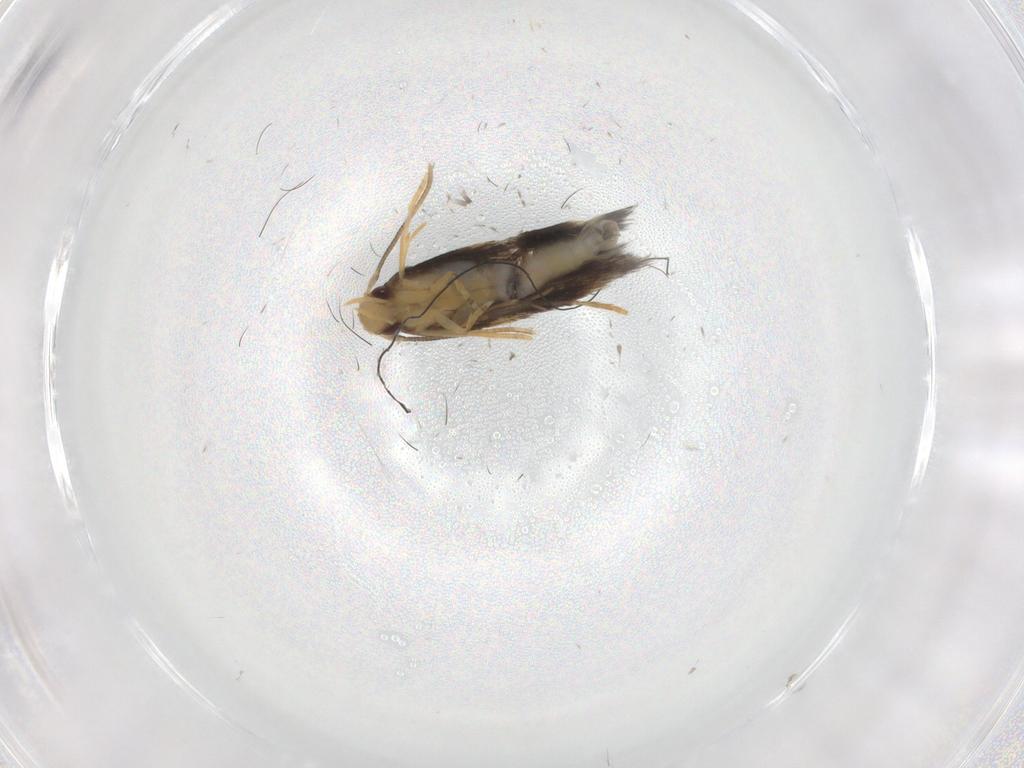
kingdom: Animalia
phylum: Arthropoda
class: Insecta
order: Lepidoptera
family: Elachistidae
